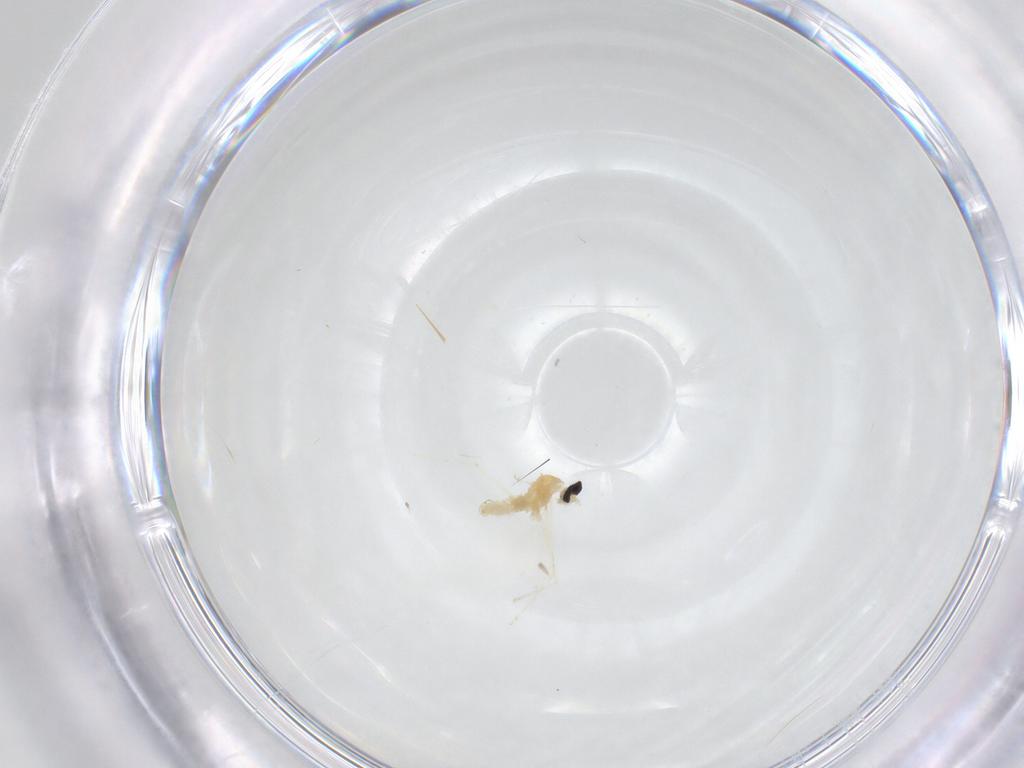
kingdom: Animalia
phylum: Arthropoda
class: Insecta
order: Diptera
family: Cecidomyiidae
